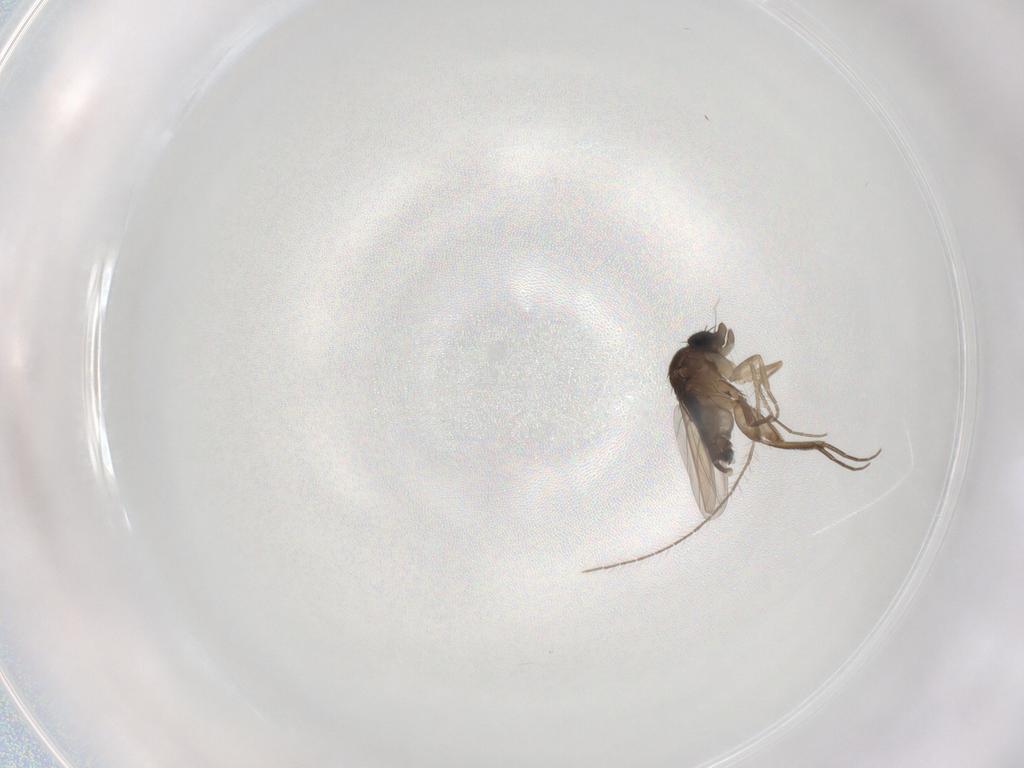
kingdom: Animalia
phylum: Arthropoda
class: Insecta
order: Diptera
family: Phoridae
